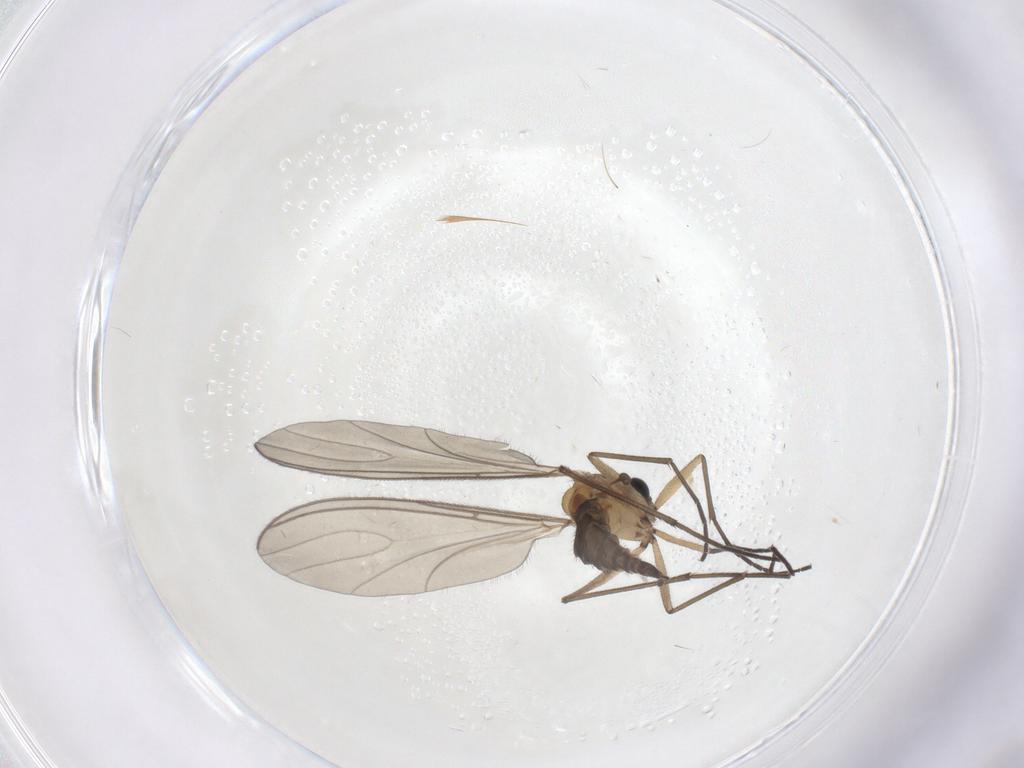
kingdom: Animalia
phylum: Arthropoda
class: Insecta
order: Diptera
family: Sciaridae
